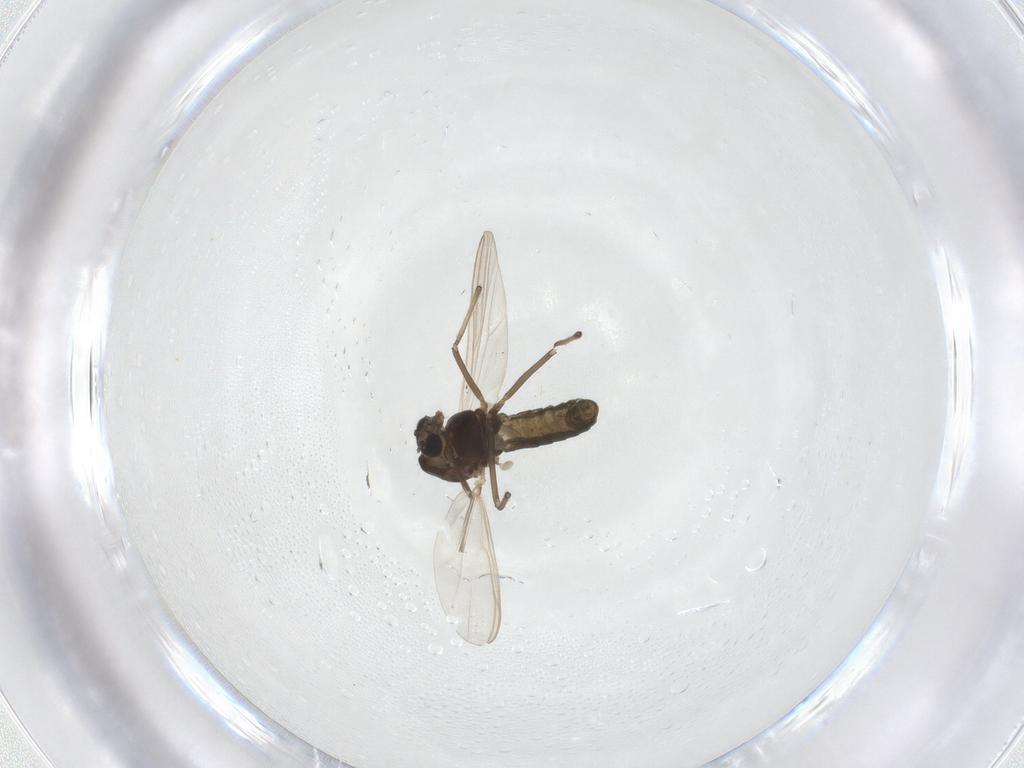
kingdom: Animalia
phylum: Arthropoda
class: Insecta
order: Diptera
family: Chironomidae
